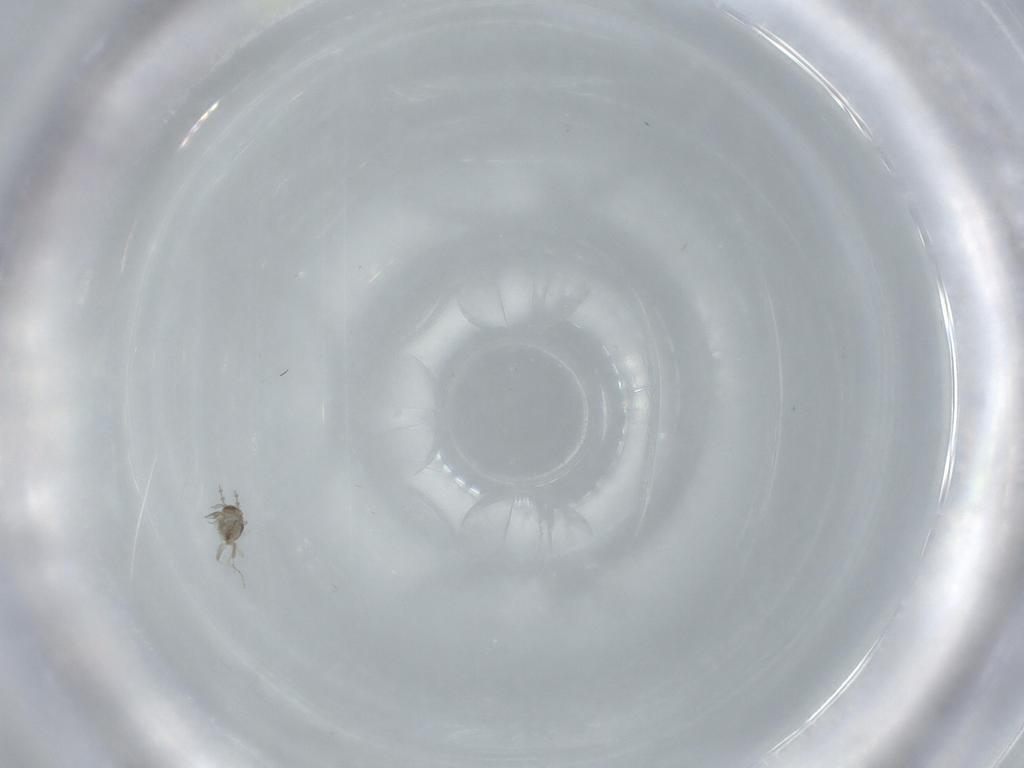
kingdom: Animalia
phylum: Arthropoda
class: Insecta
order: Diptera
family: Cecidomyiidae
